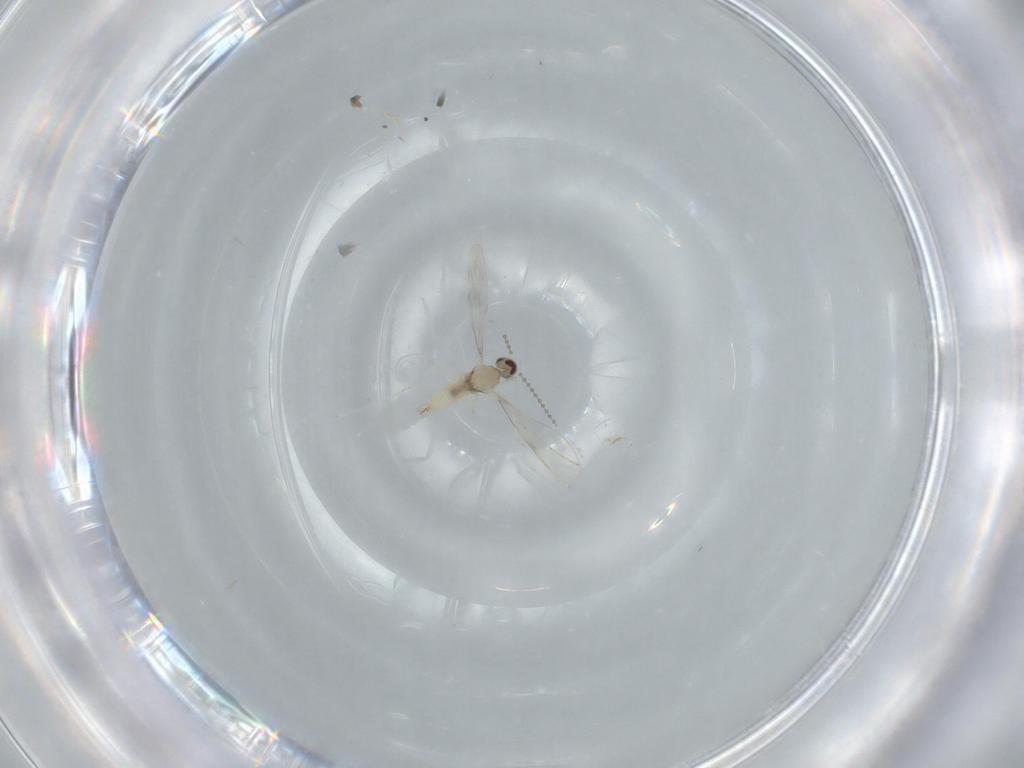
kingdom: Animalia
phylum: Arthropoda
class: Insecta
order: Diptera
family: Cecidomyiidae
